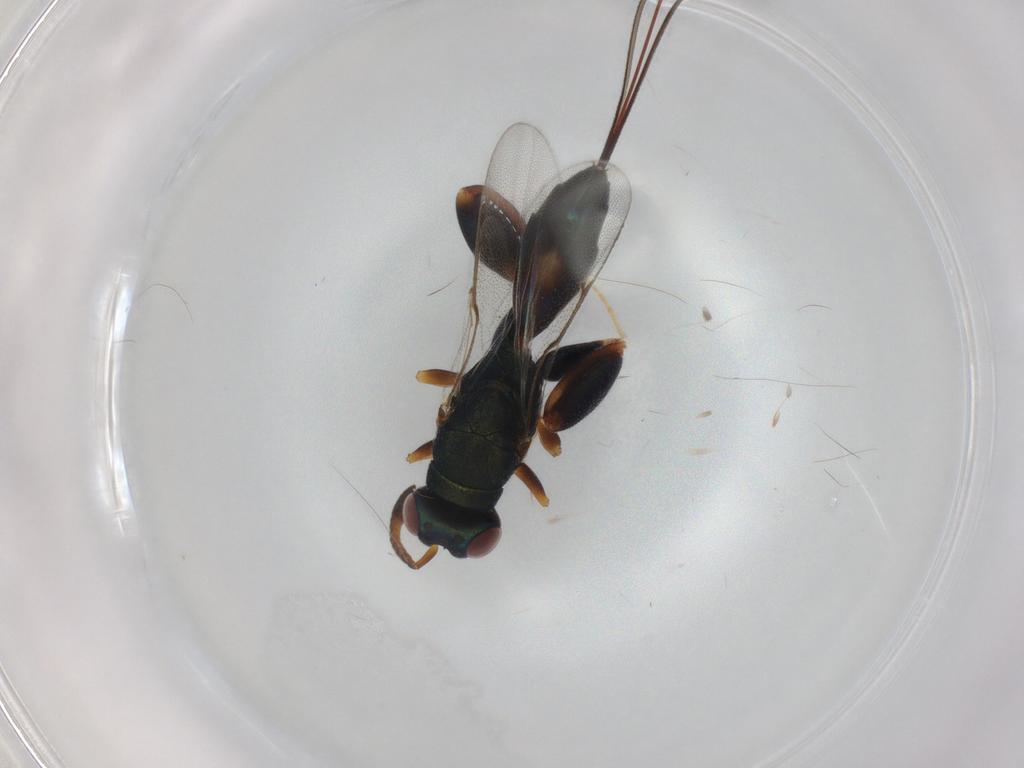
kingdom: Animalia
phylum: Arthropoda
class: Insecta
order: Hymenoptera
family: Torymidae
